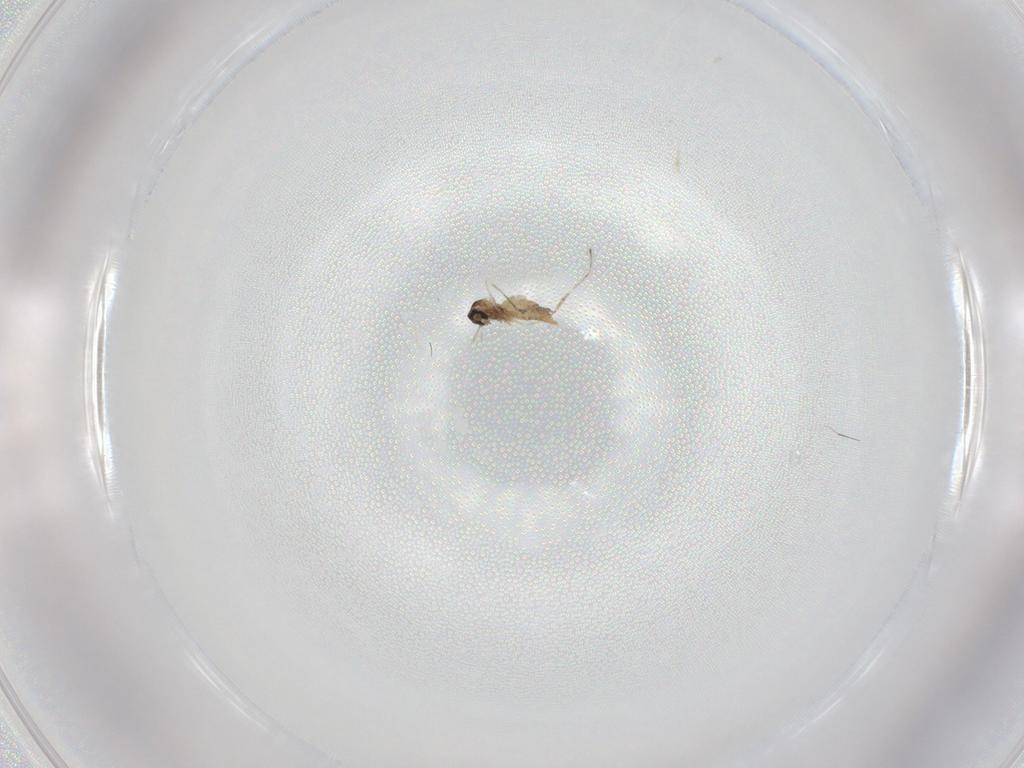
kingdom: Animalia
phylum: Arthropoda
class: Insecta
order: Diptera
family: Cecidomyiidae
